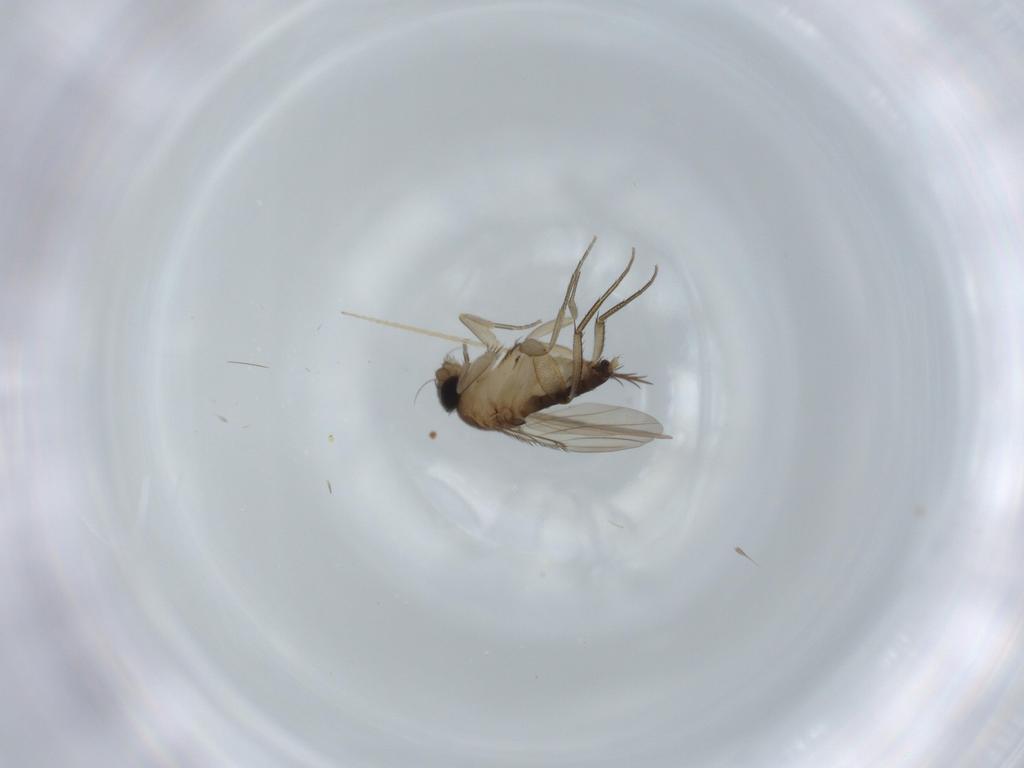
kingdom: Animalia
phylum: Arthropoda
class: Insecta
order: Diptera
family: Phoridae
